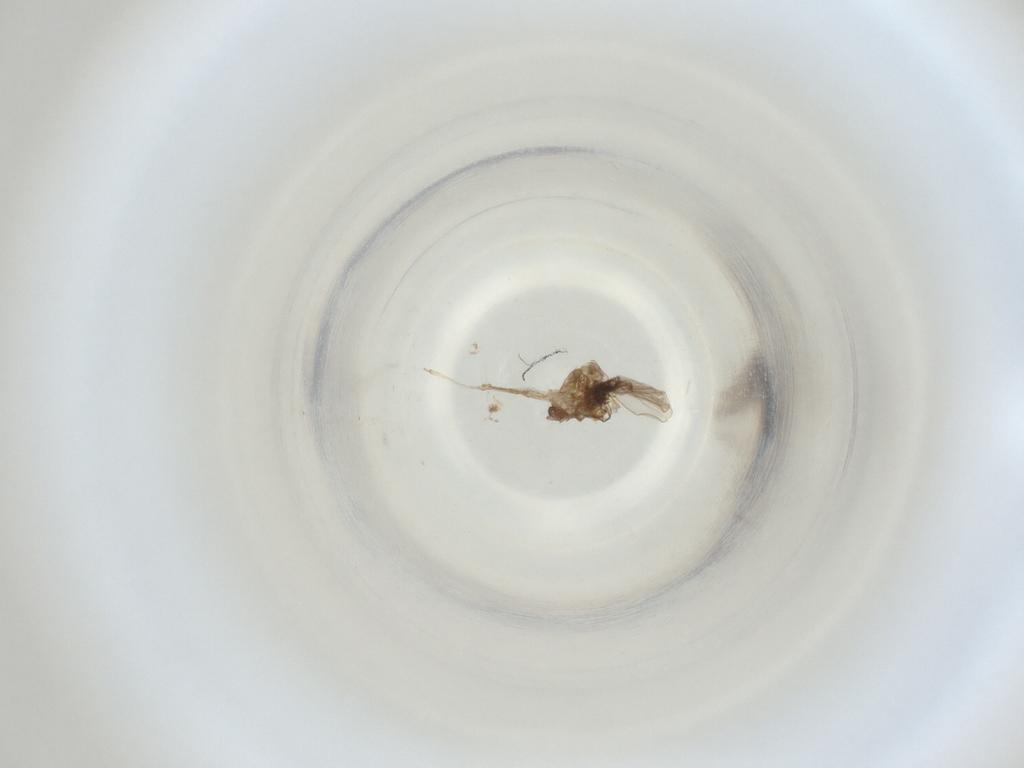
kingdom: Animalia
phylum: Arthropoda
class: Insecta
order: Diptera
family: Cecidomyiidae
